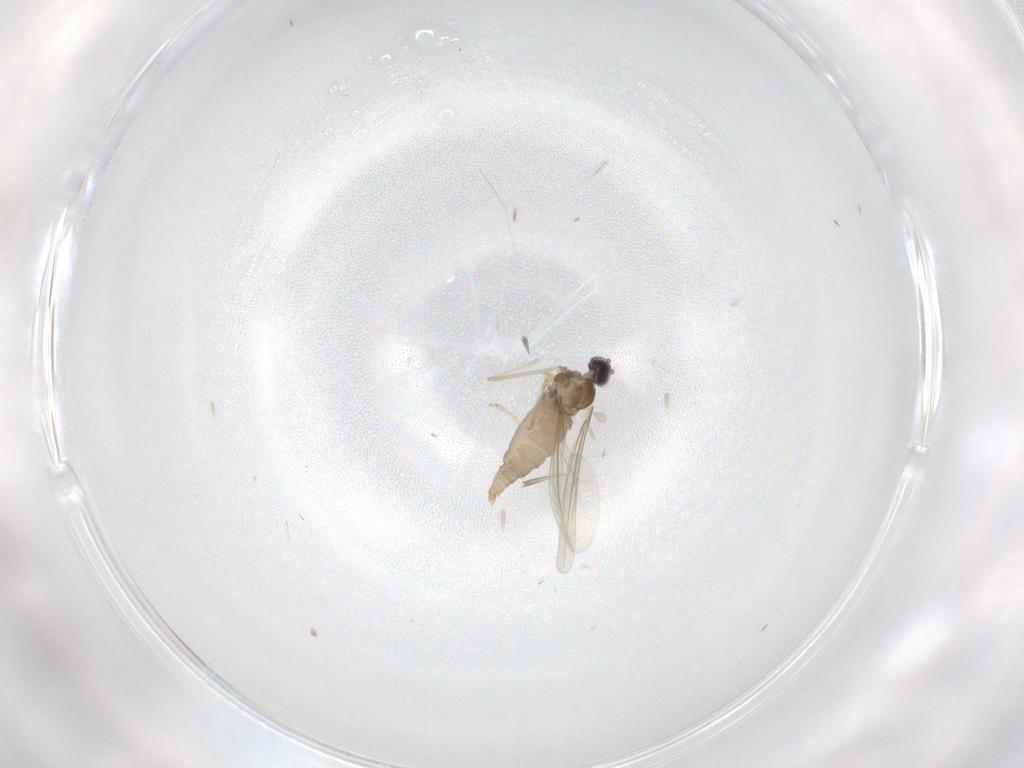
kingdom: Animalia
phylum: Arthropoda
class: Insecta
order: Diptera
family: Cecidomyiidae
